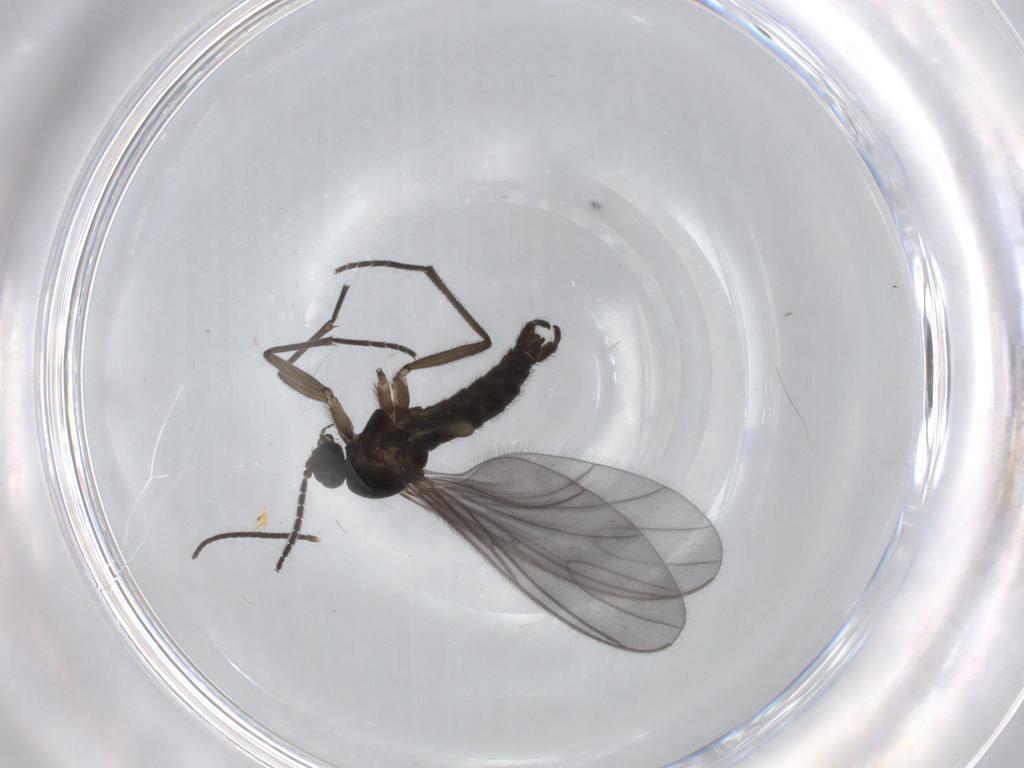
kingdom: Animalia
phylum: Arthropoda
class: Insecta
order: Diptera
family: Sciaridae
